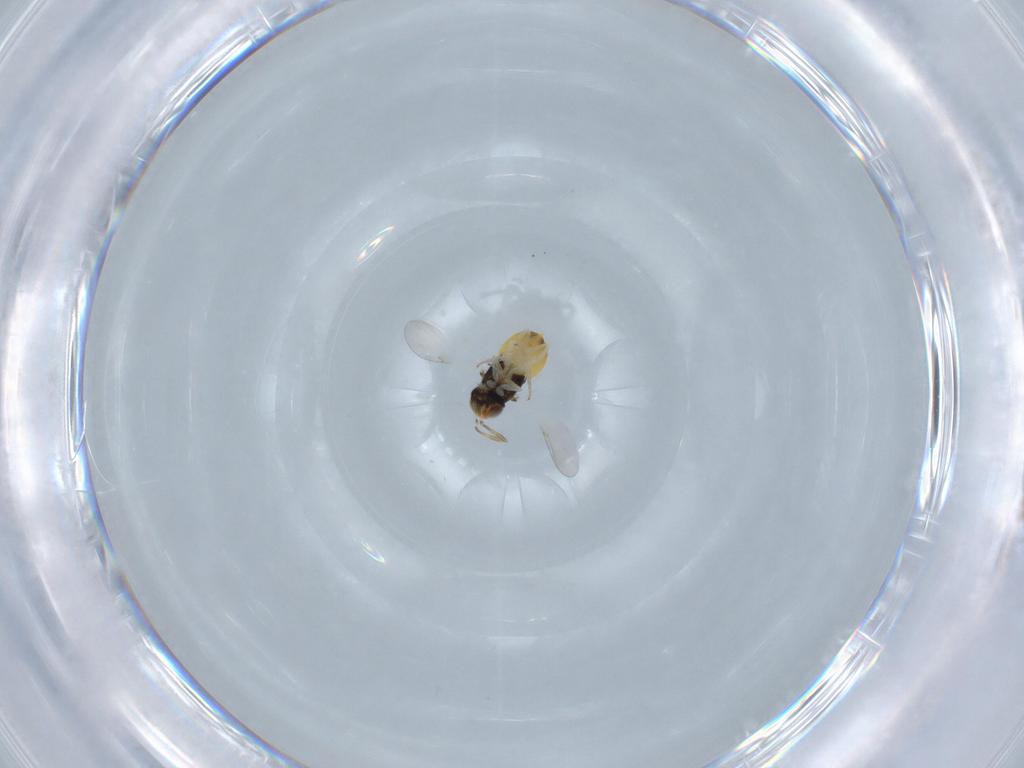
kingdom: Animalia
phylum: Arthropoda
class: Insecta
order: Hymenoptera
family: Encyrtidae
